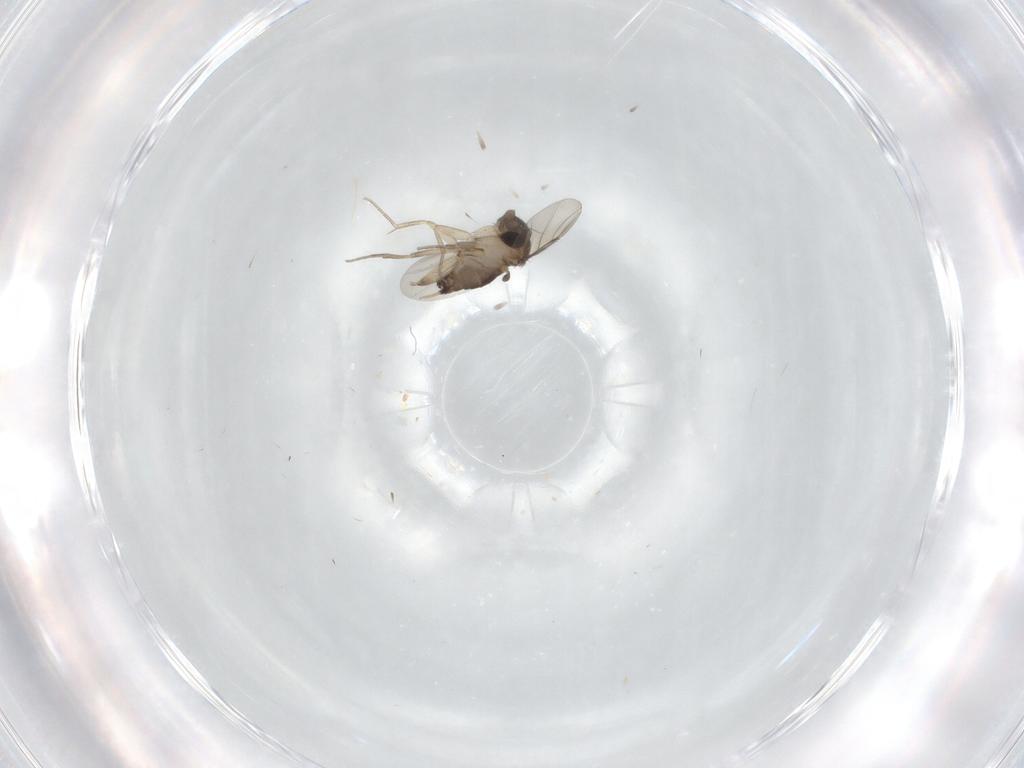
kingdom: Animalia
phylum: Arthropoda
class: Insecta
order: Diptera
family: Phoridae
